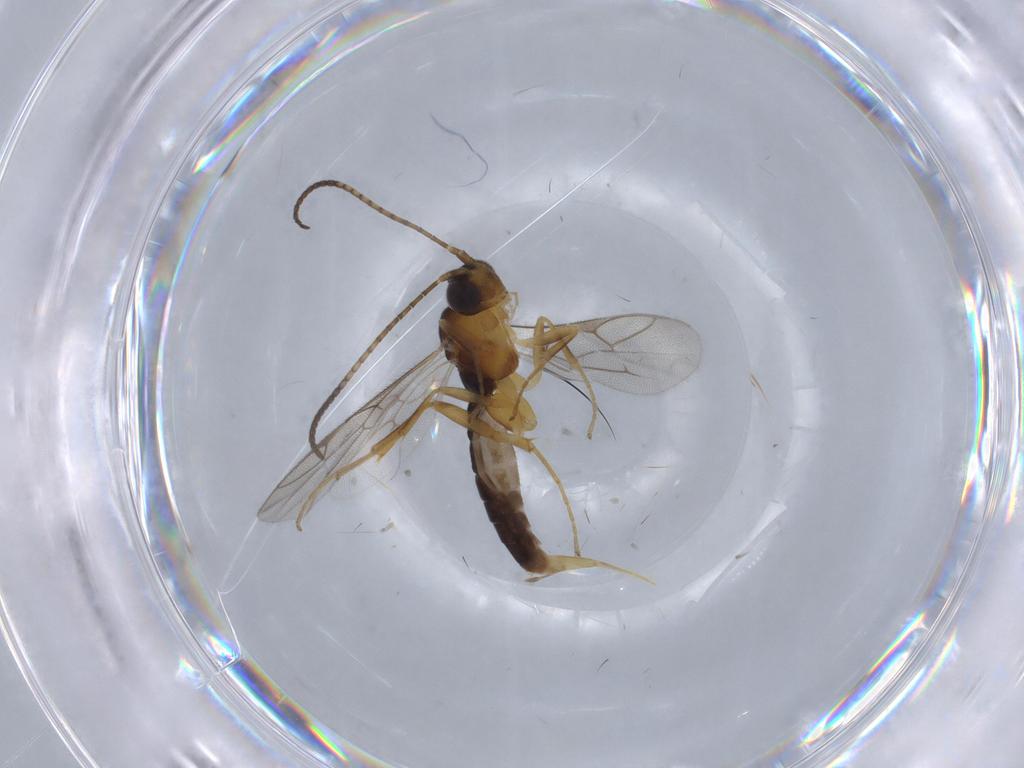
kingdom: Animalia
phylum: Arthropoda
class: Insecta
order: Hymenoptera
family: Ichneumonidae
